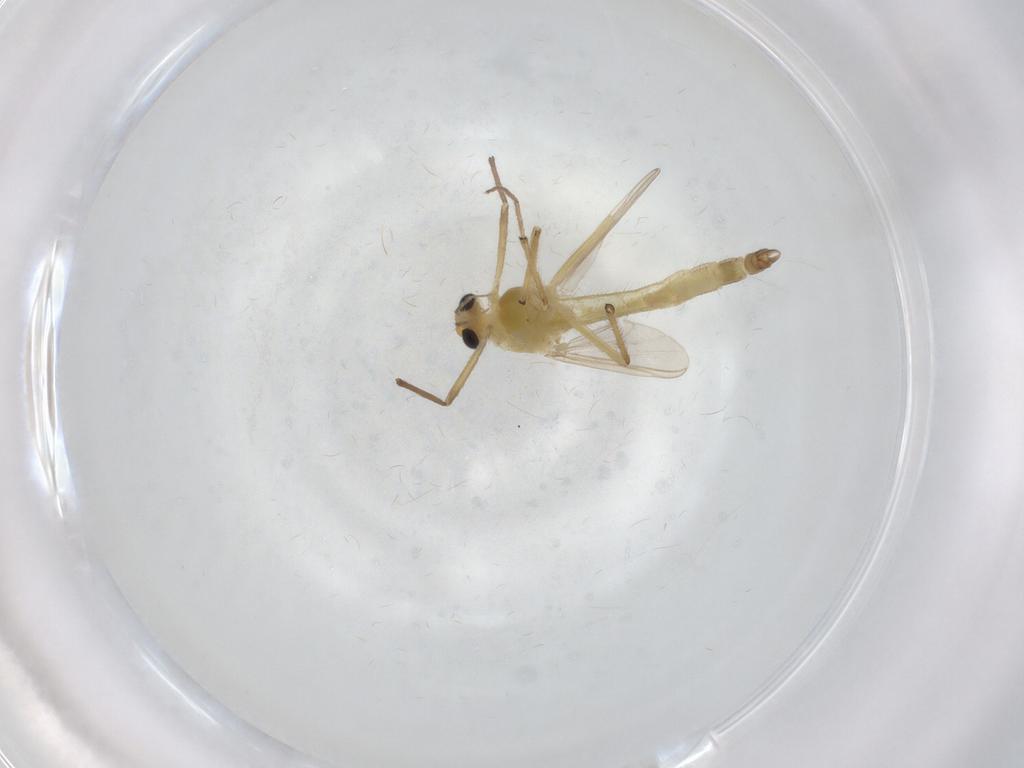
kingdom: Animalia
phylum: Arthropoda
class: Insecta
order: Diptera
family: Chironomidae
